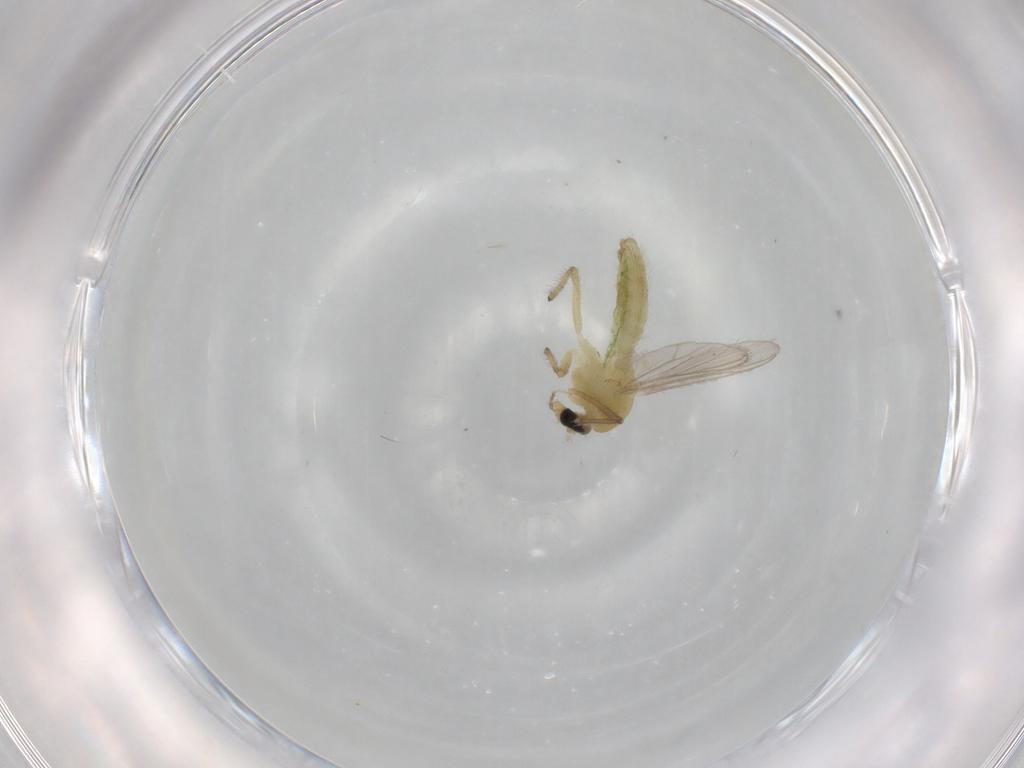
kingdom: Animalia
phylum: Arthropoda
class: Insecta
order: Diptera
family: Chironomidae
